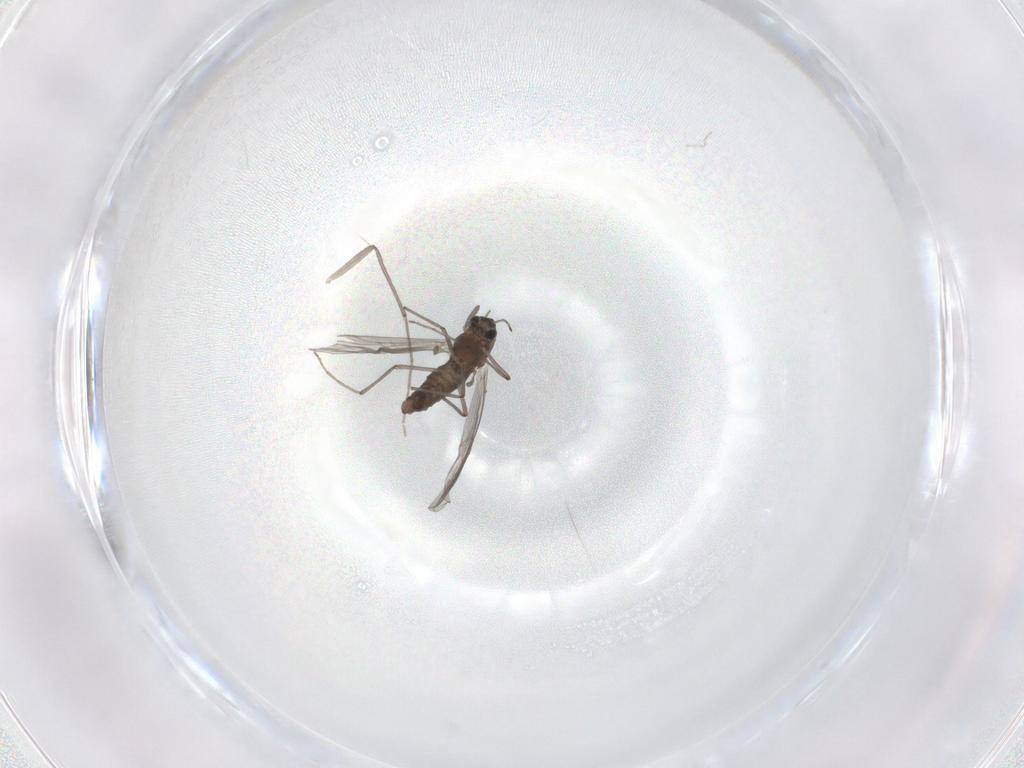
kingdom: Animalia
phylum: Arthropoda
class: Insecta
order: Diptera
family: Chironomidae
